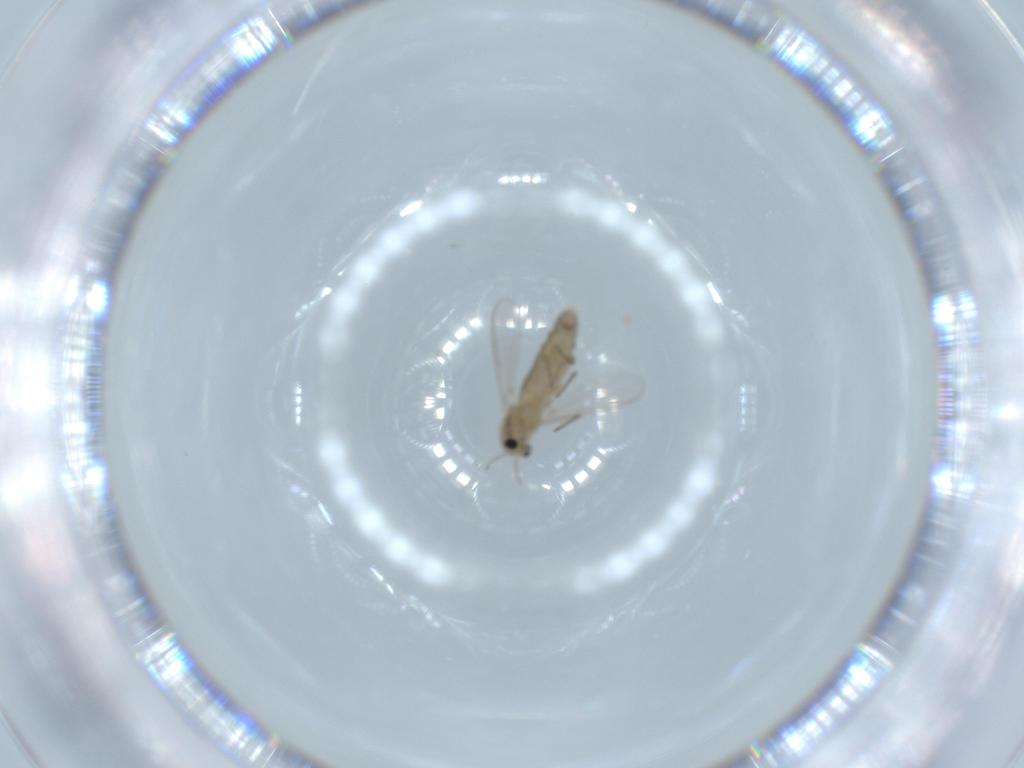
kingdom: Animalia
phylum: Arthropoda
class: Insecta
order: Diptera
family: Chironomidae
